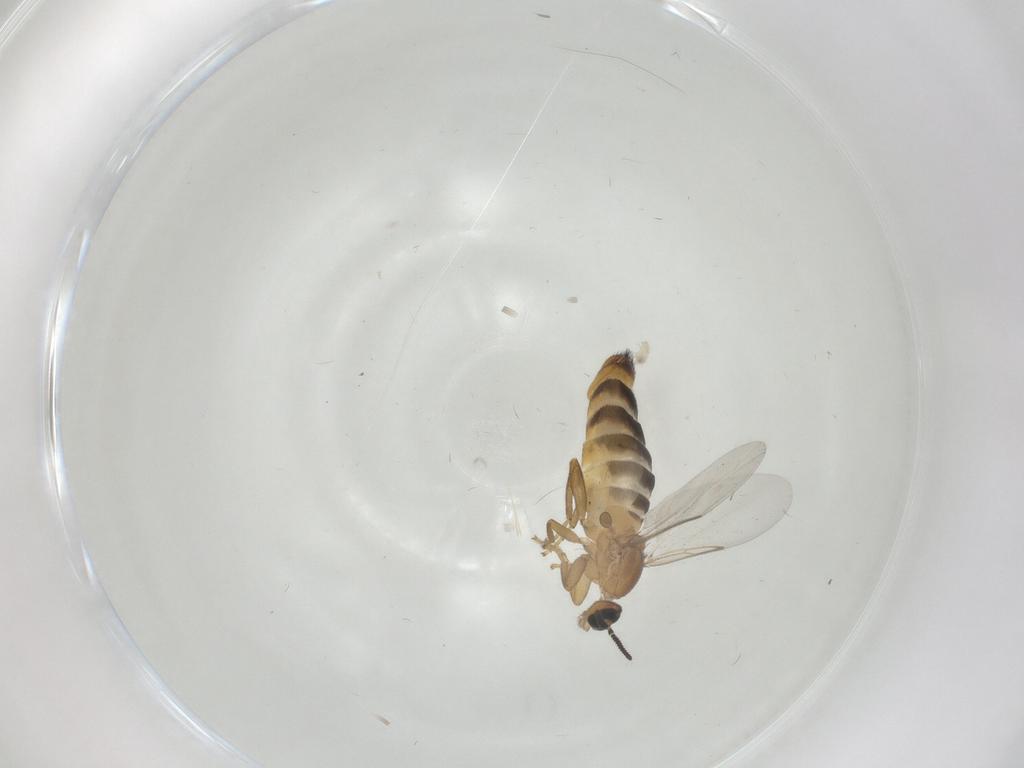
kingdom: Animalia
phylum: Arthropoda
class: Insecta
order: Diptera
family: Scatopsidae
